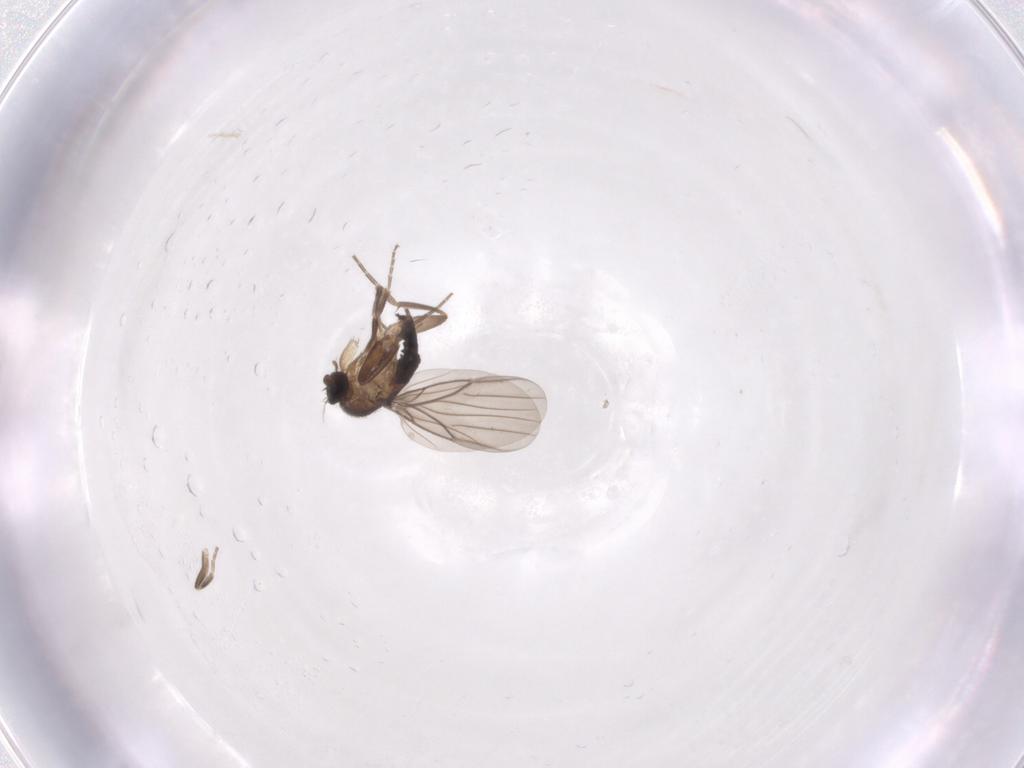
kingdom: Animalia
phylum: Arthropoda
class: Insecta
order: Diptera
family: Phoridae
